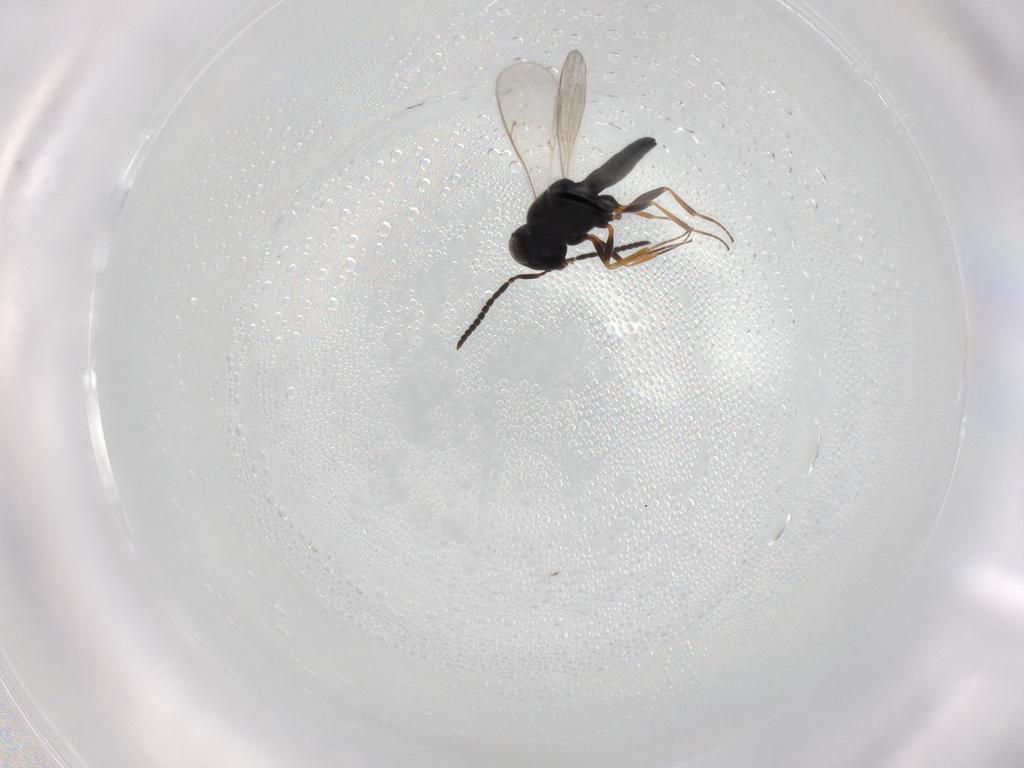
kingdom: Animalia
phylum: Arthropoda
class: Insecta
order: Hymenoptera
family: Scelionidae
